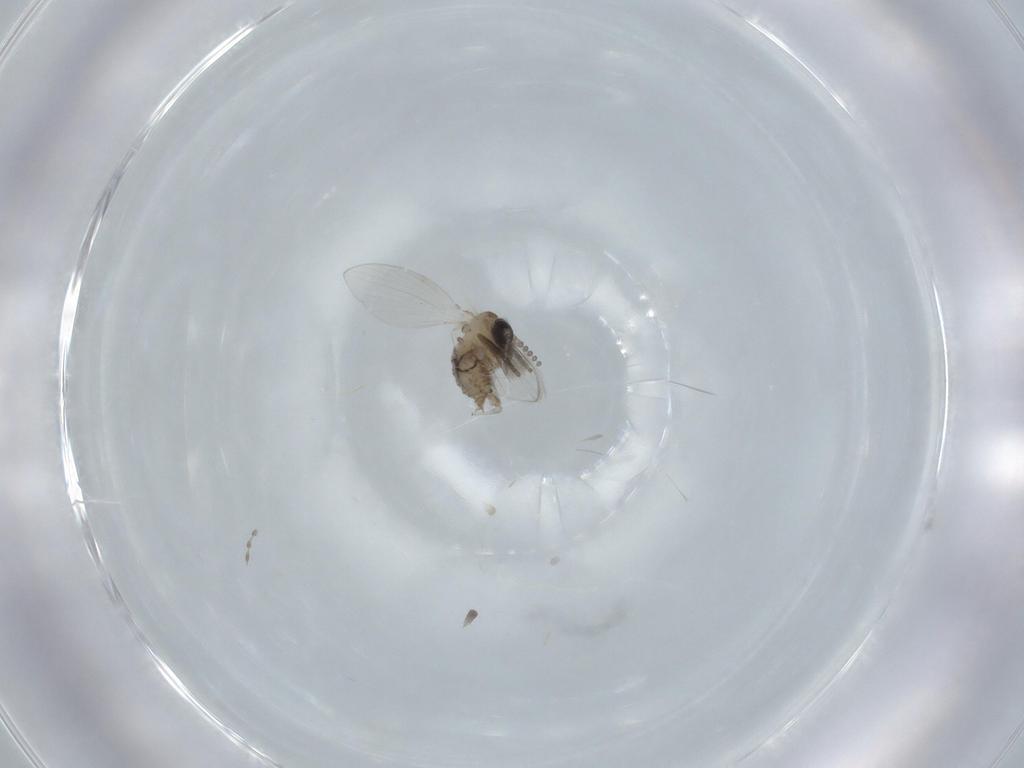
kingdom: Animalia
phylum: Arthropoda
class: Insecta
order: Diptera
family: Psychodidae
